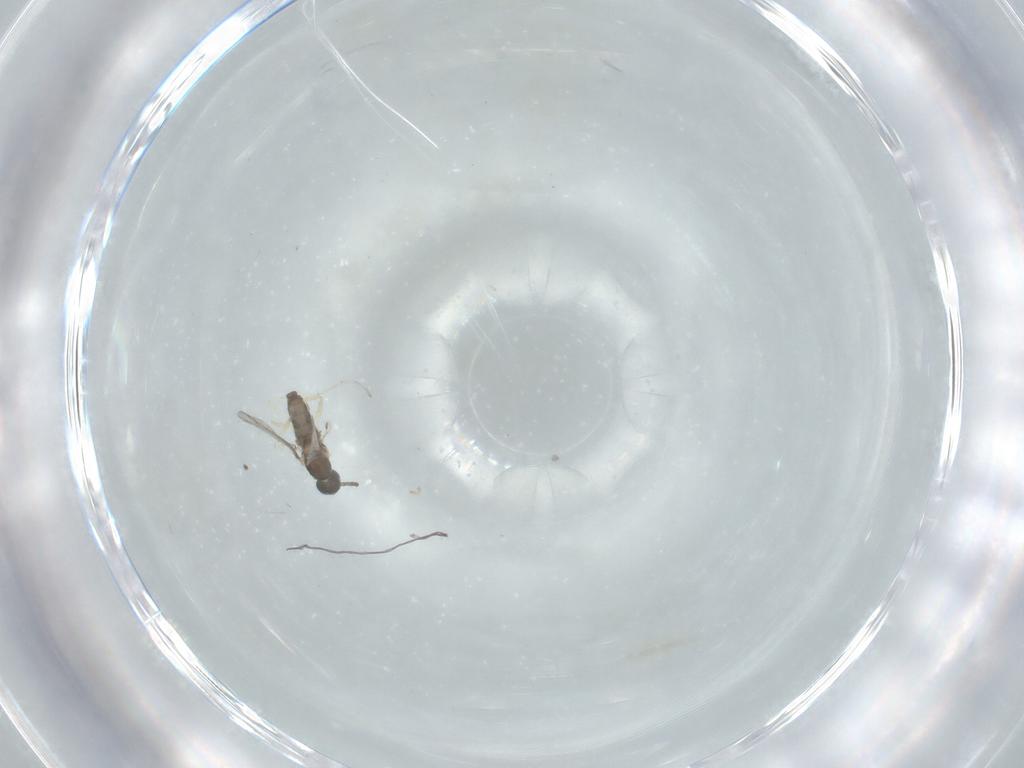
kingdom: Animalia
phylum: Arthropoda
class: Insecta
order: Diptera
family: Cecidomyiidae
